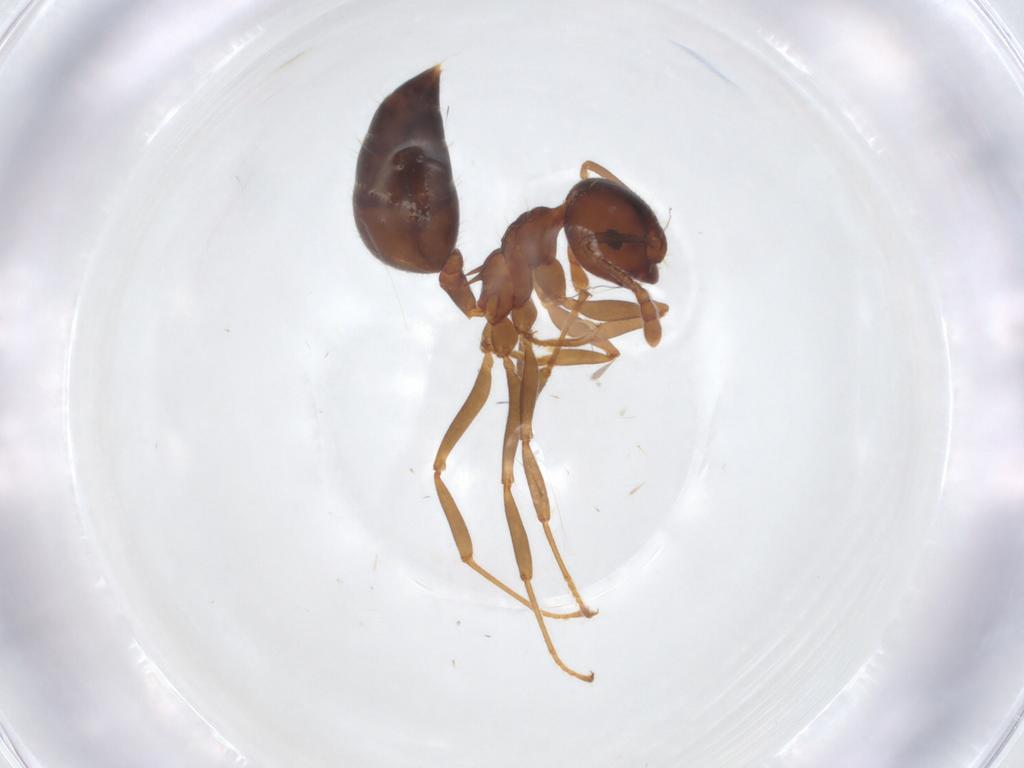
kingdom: Animalia
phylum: Arthropoda
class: Insecta
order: Hymenoptera
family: Formicidae
